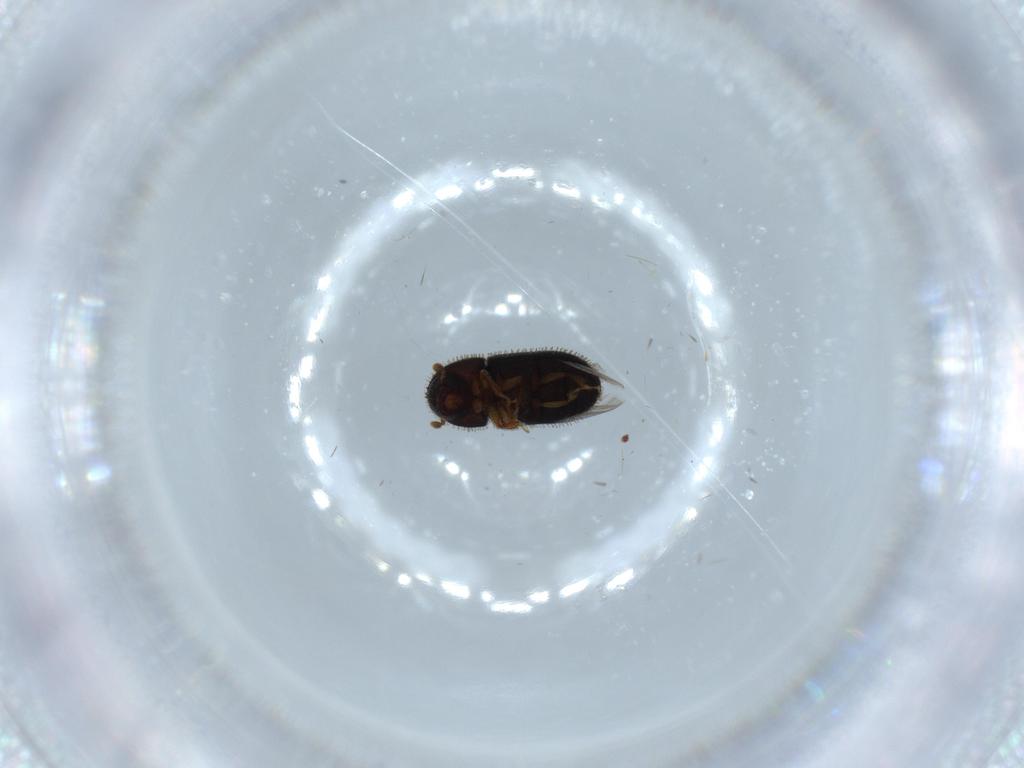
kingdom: Animalia
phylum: Arthropoda
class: Insecta
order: Coleoptera
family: Curculionidae
